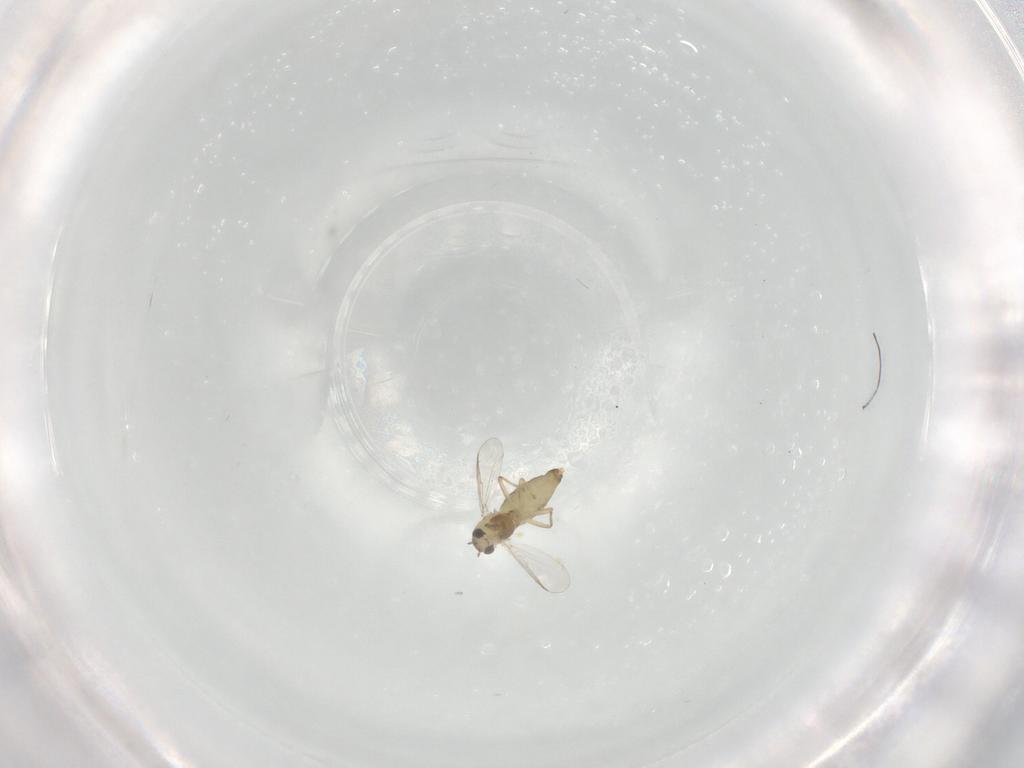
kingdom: Animalia
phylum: Arthropoda
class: Insecta
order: Diptera
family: Chironomidae
